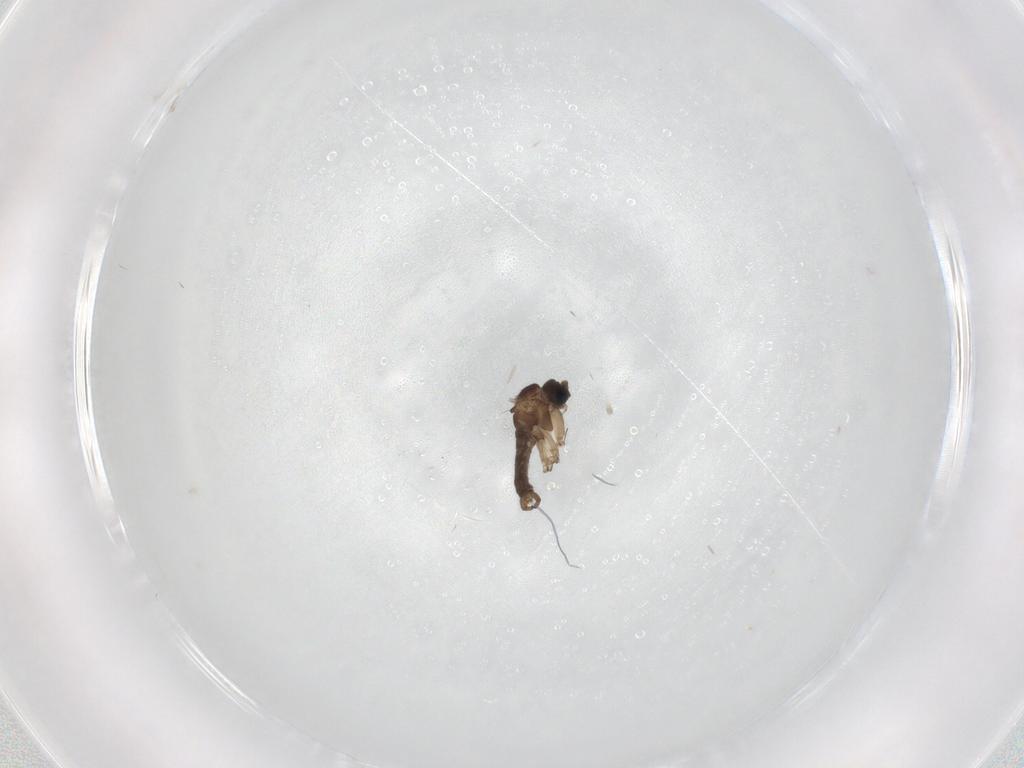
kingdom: Animalia
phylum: Arthropoda
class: Insecta
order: Diptera
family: Sciaridae
